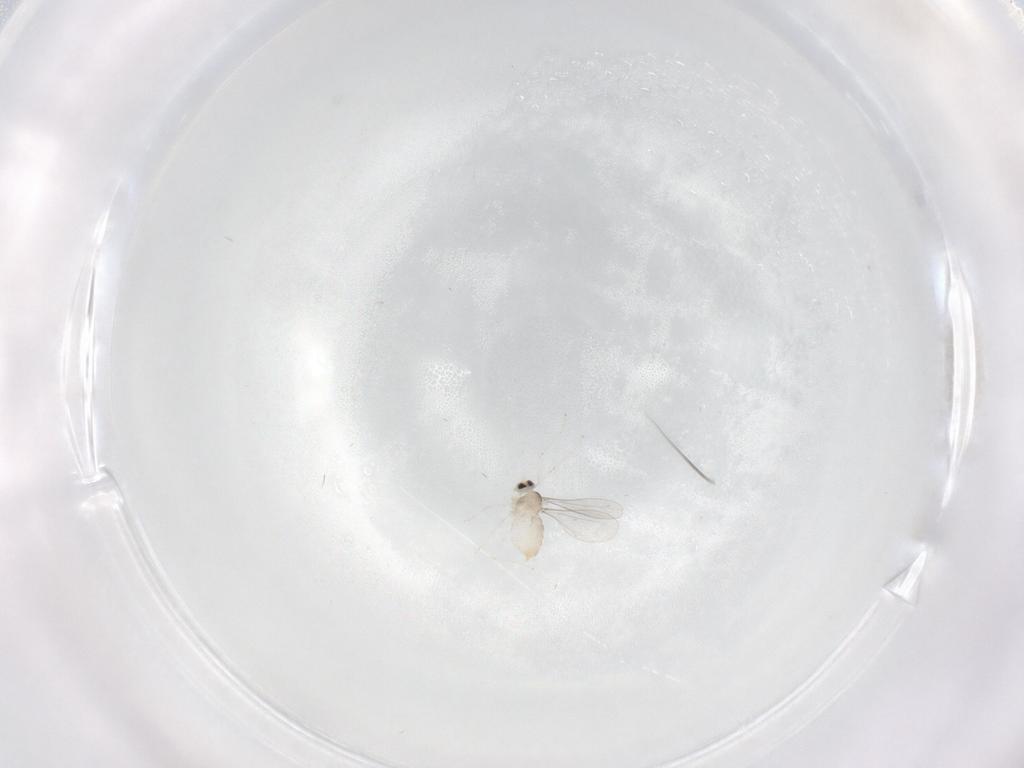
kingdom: Animalia
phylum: Arthropoda
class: Insecta
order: Diptera
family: Cecidomyiidae
